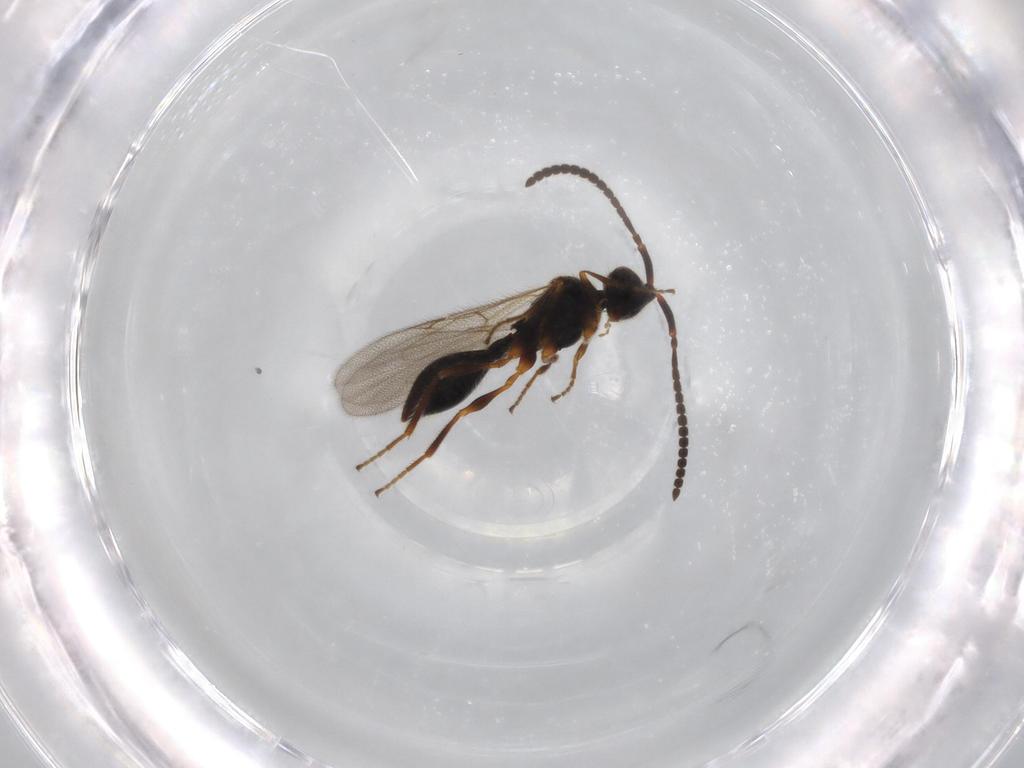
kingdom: Animalia
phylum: Arthropoda
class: Insecta
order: Hymenoptera
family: Diapriidae
